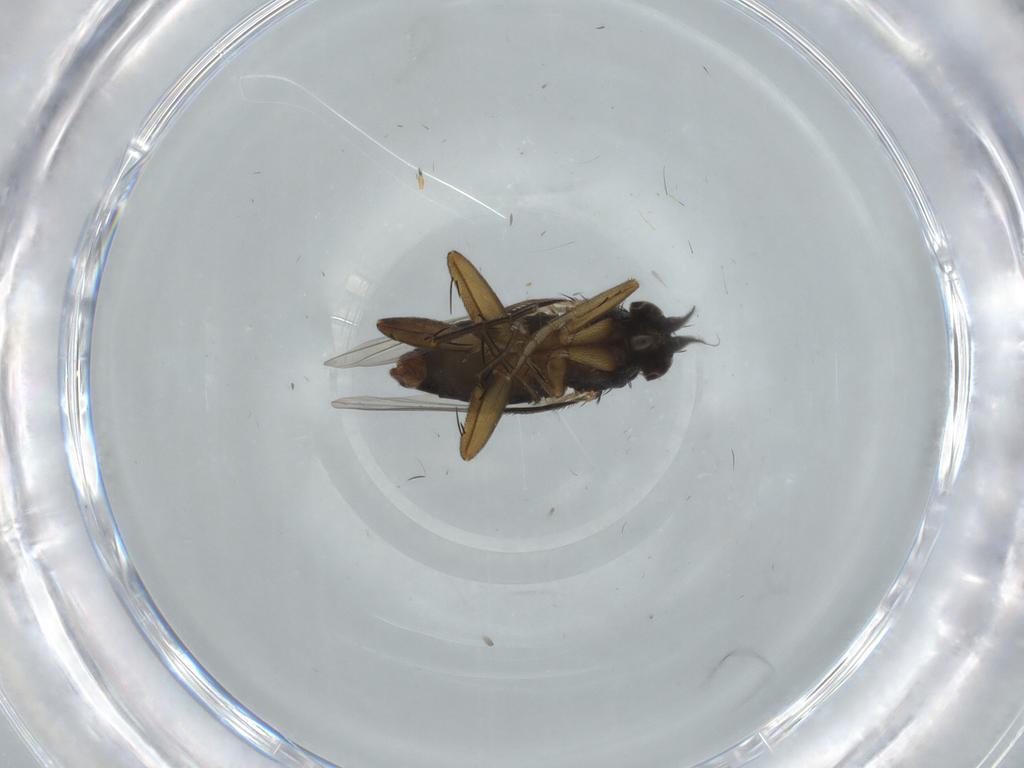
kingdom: Animalia
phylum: Arthropoda
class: Insecta
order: Diptera
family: Phoridae
